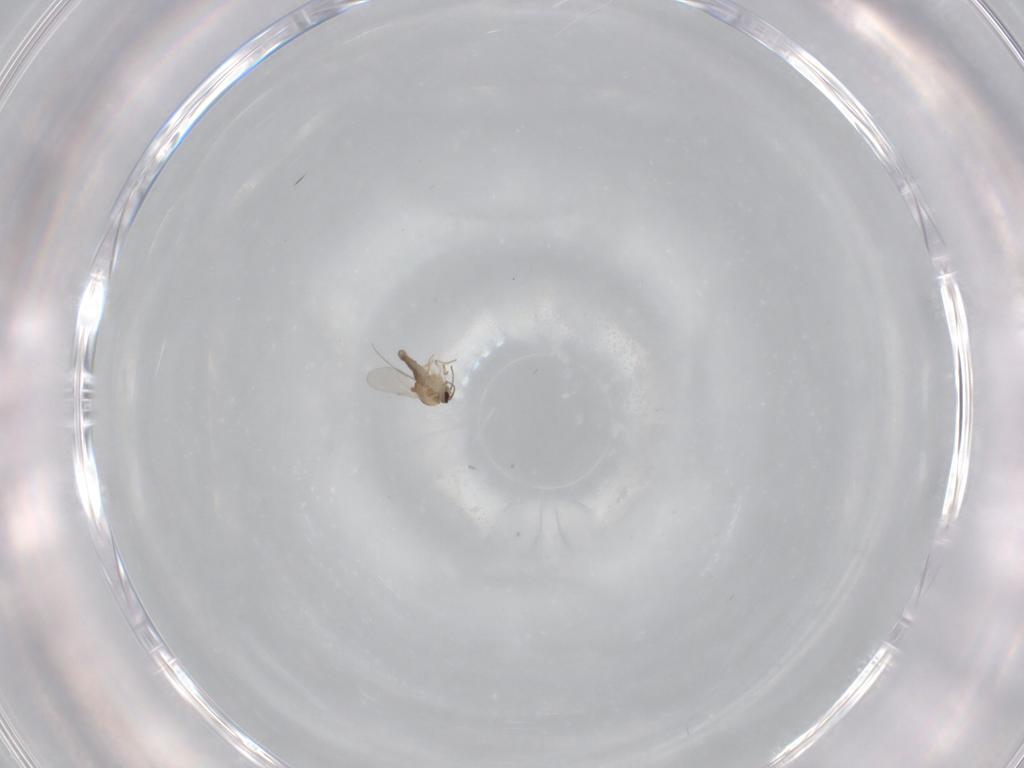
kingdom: Animalia
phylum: Arthropoda
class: Insecta
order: Diptera
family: Ceratopogonidae
